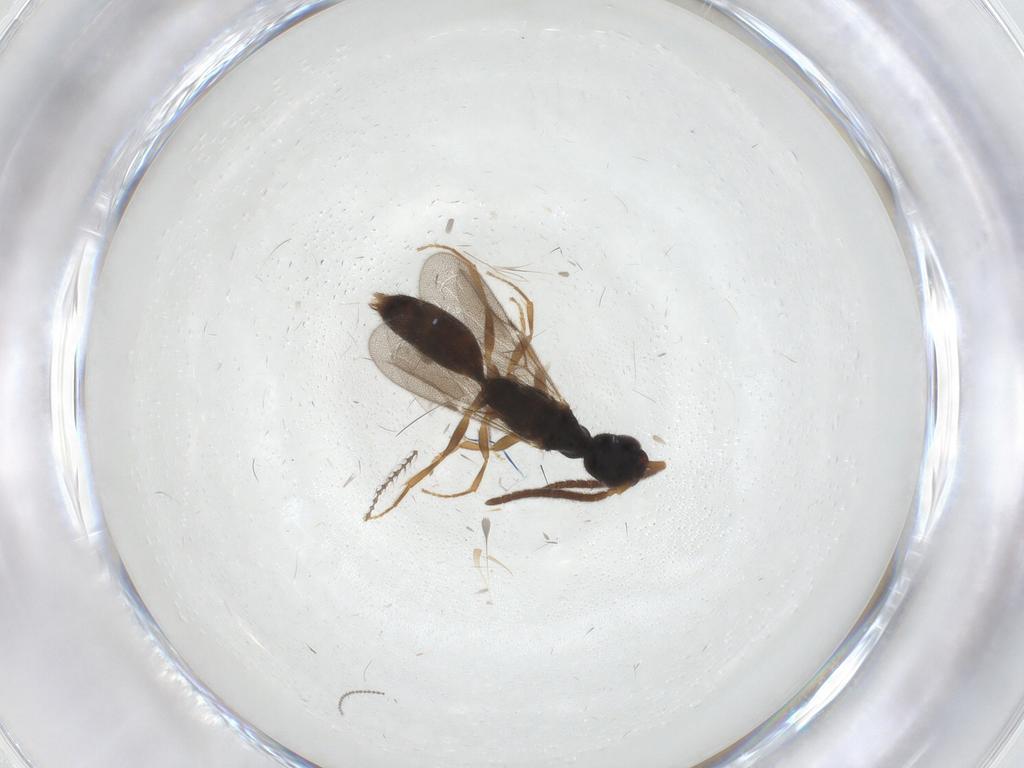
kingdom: Animalia
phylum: Arthropoda
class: Insecta
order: Hymenoptera
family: Bethylidae
